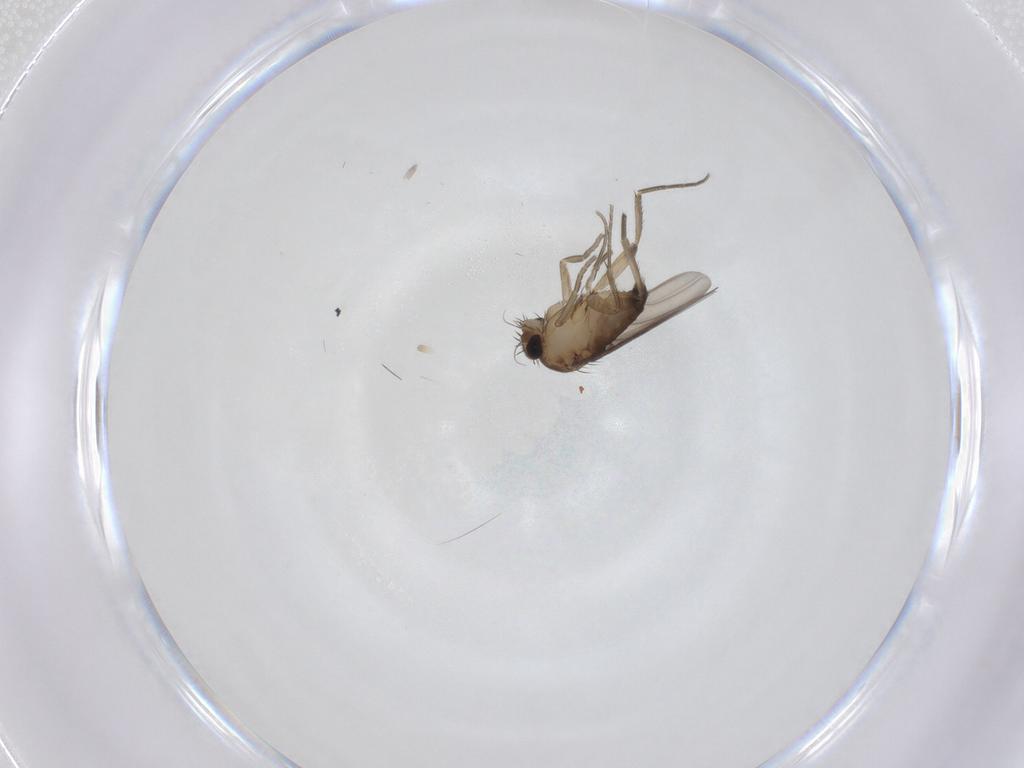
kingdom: Animalia
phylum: Arthropoda
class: Insecta
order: Diptera
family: Phoridae
